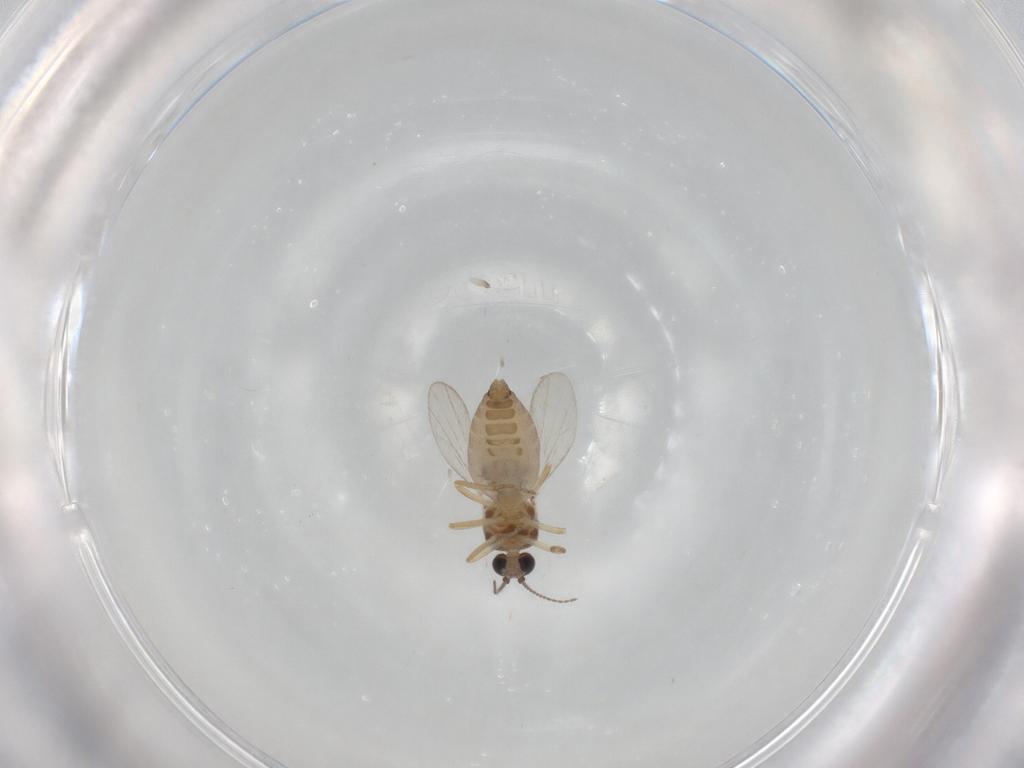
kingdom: Animalia
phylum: Arthropoda
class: Insecta
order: Diptera
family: Ceratopogonidae
